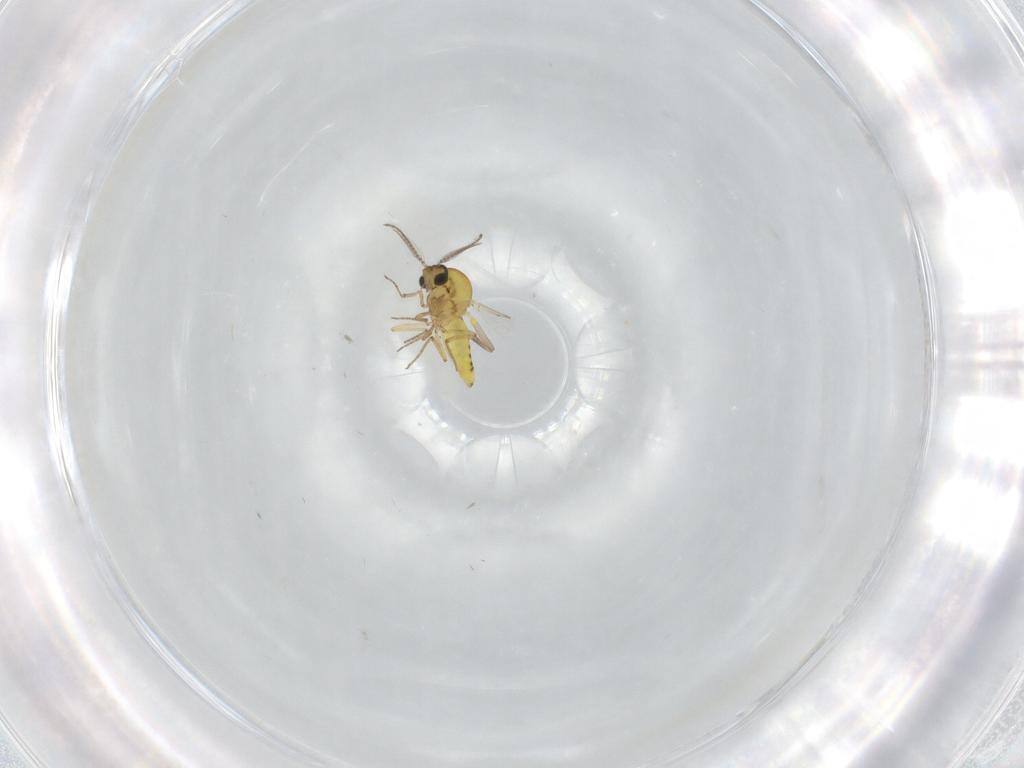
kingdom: Animalia
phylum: Arthropoda
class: Insecta
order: Diptera
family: Ceratopogonidae
